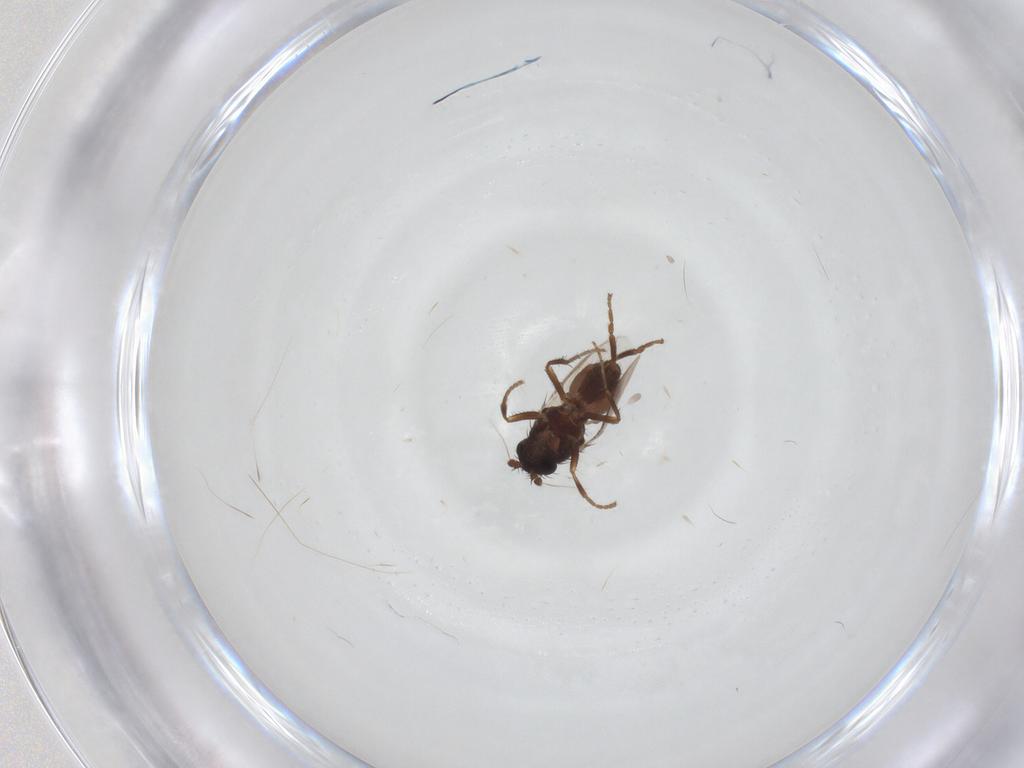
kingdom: Animalia
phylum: Arthropoda
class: Insecta
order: Diptera
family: Sphaeroceridae
